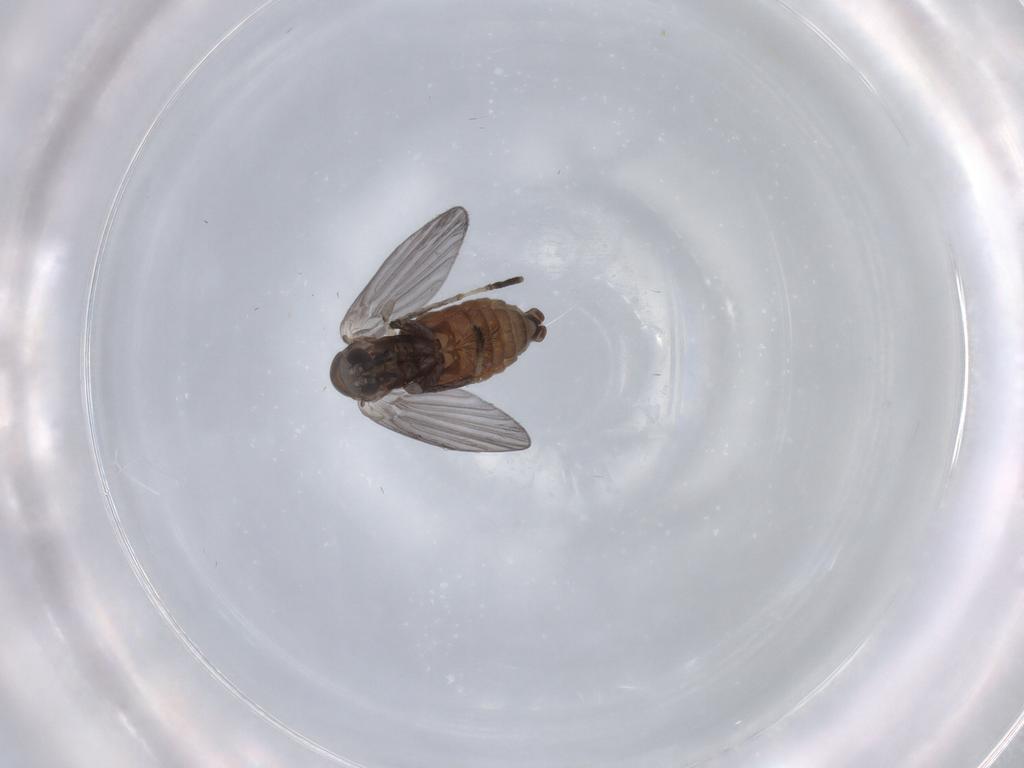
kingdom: Animalia
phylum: Arthropoda
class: Insecta
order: Diptera
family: Psychodidae
